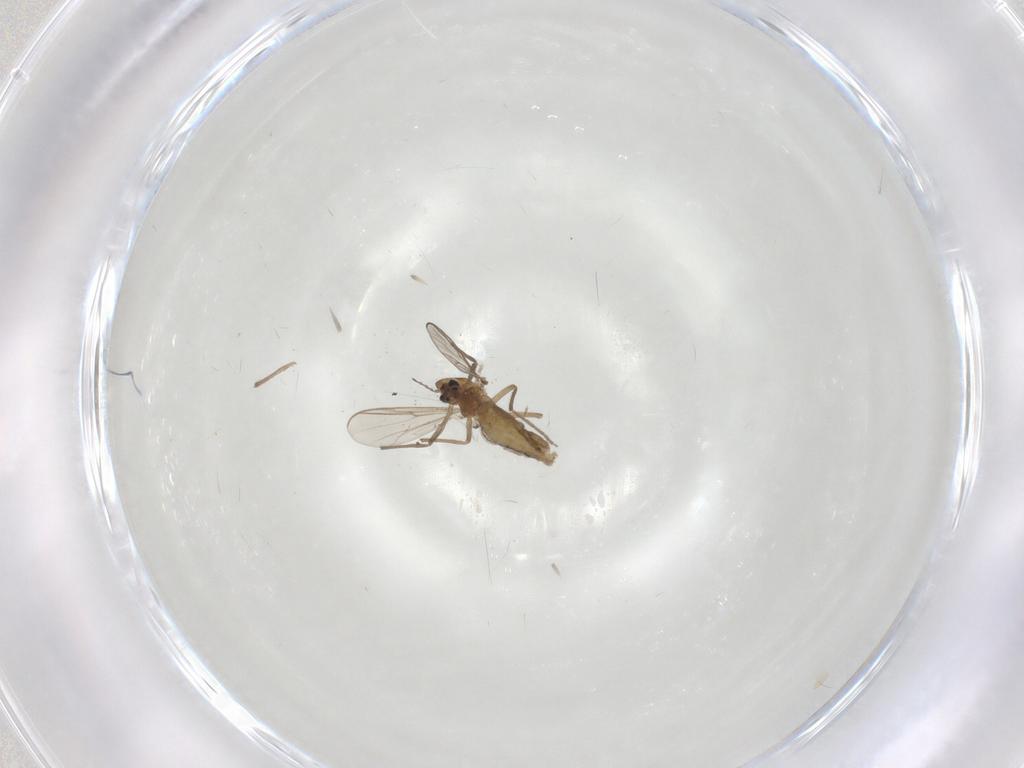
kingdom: Animalia
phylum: Arthropoda
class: Insecta
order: Diptera
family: Chironomidae
